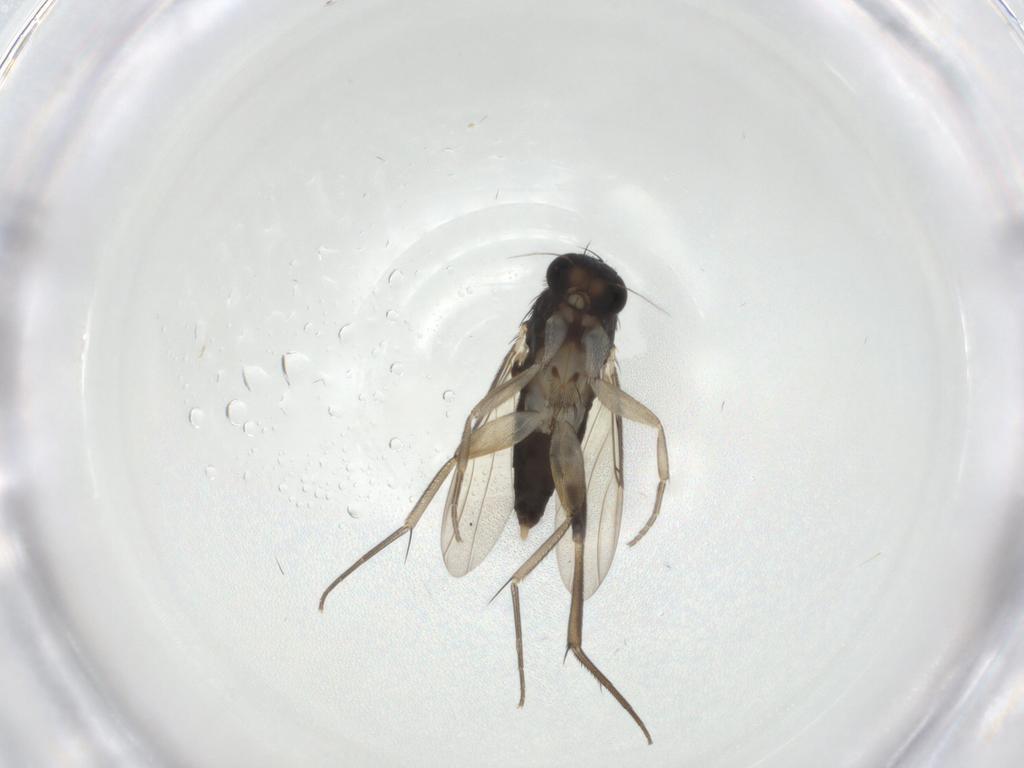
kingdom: Animalia
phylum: Arthropoda
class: Insecta
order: Diptera
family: Phoridae
